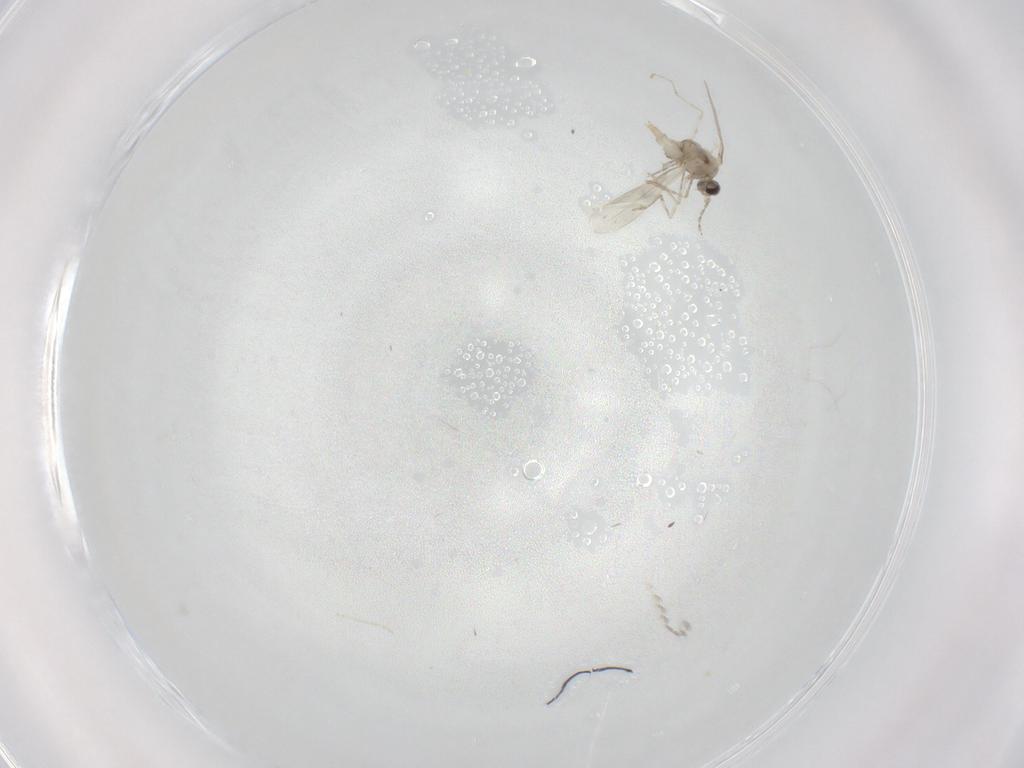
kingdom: Animalia
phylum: Arthropoda
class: Insecta
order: Diptera
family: Cecidomyiidae
